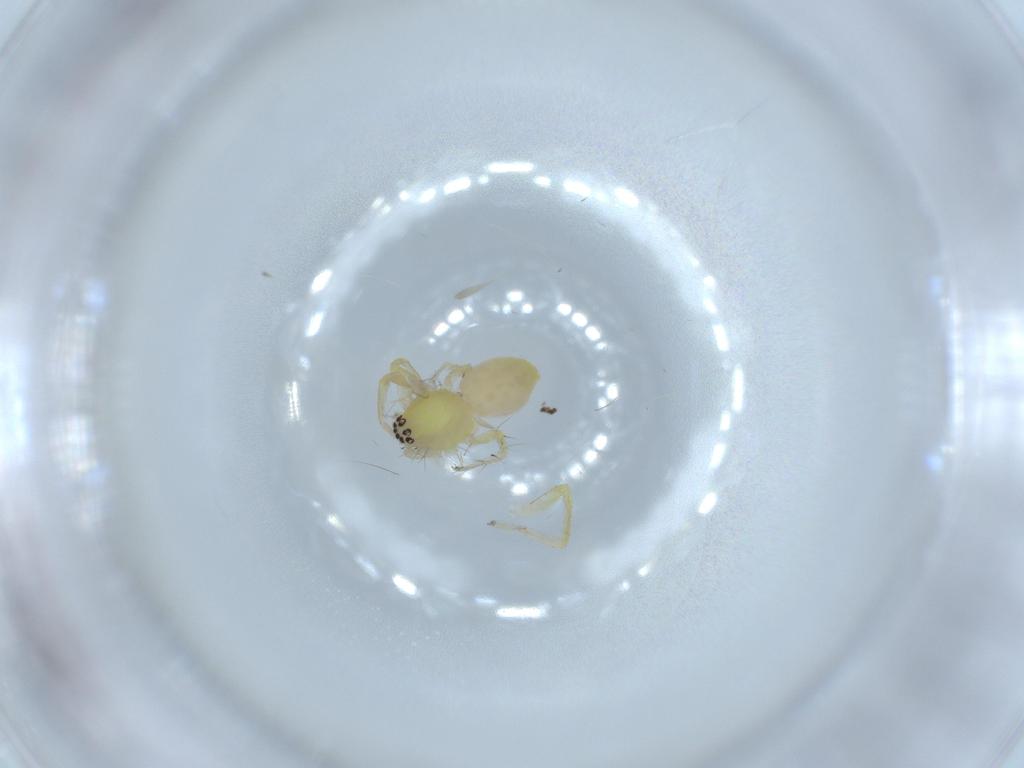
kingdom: Animalia
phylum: Arthropoda
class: Arachnida
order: Araneae
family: Anyphaenidae
